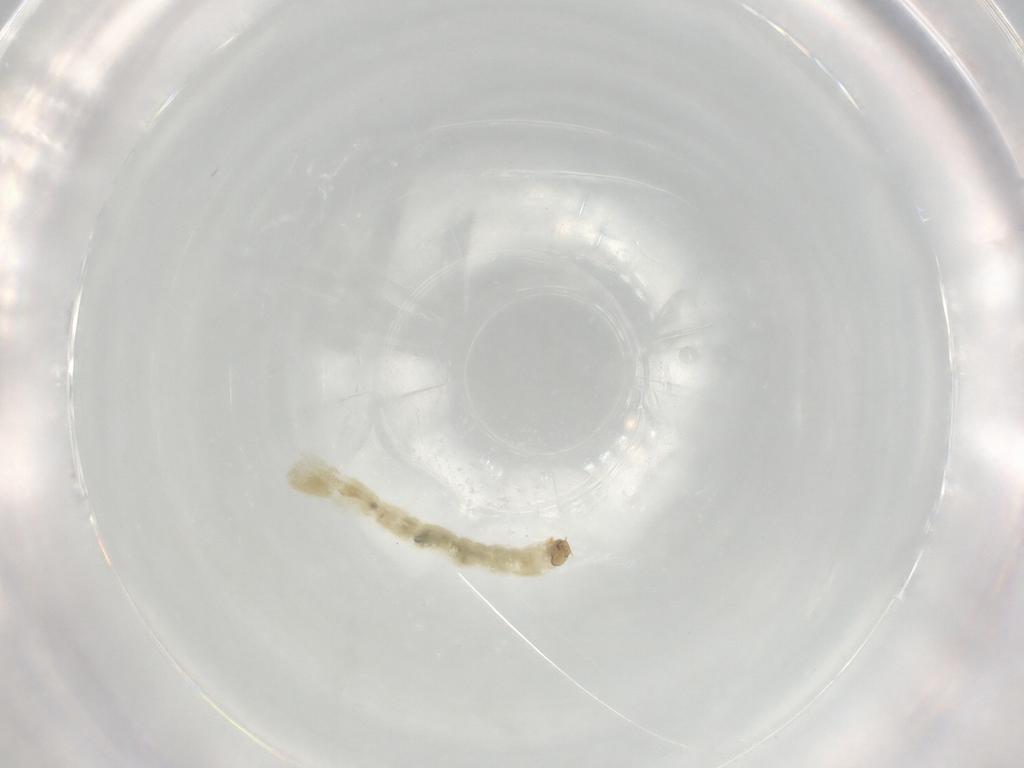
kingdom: Animalia
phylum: Arthropoda
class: Insecta
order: Diptera
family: Chironomidae
